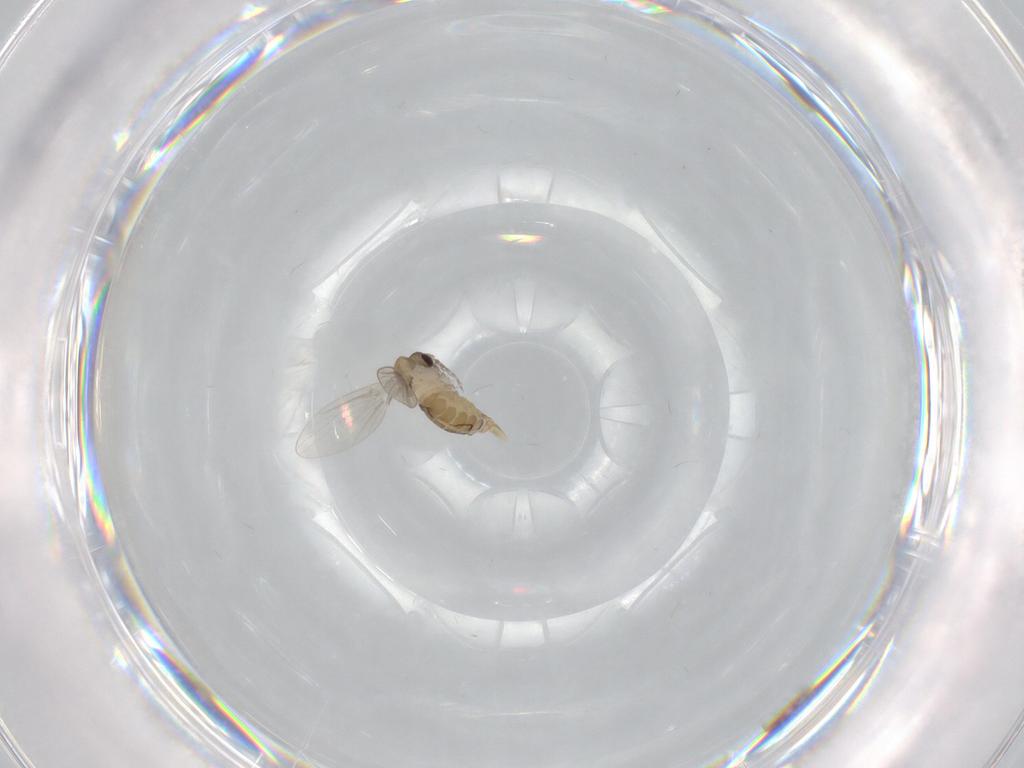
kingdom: Animalia
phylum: Arthropoda
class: Insecta
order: Diptera
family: Psychodidae
